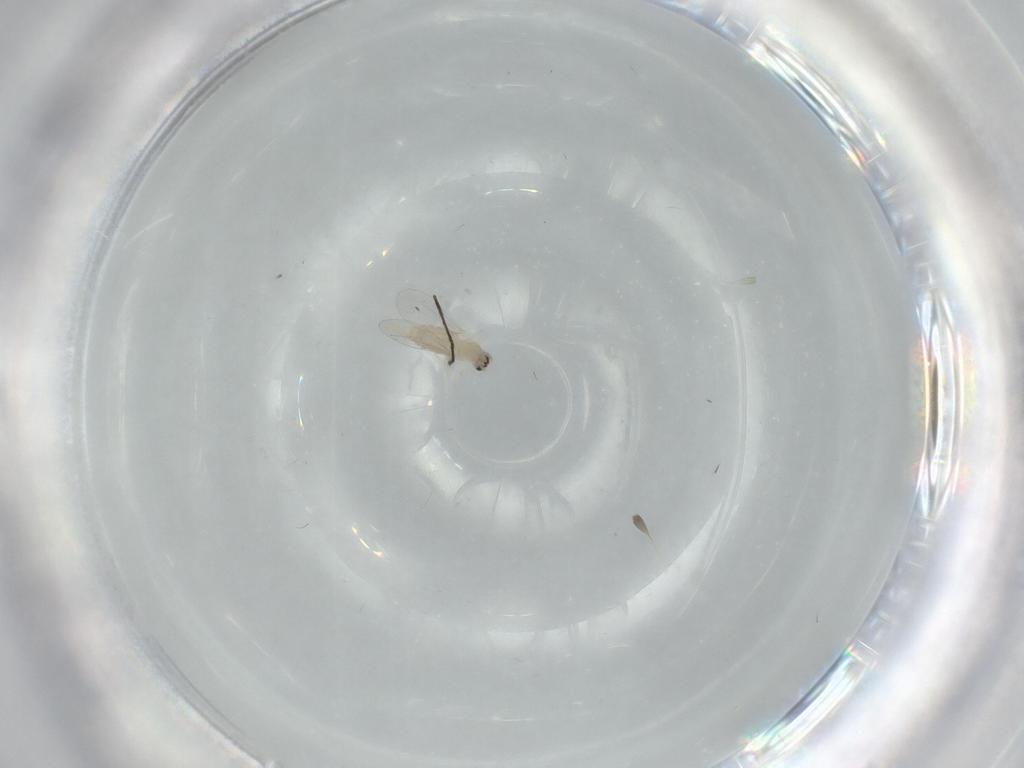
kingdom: Animalia
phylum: Arthropoda
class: Insecta
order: Diptera
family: Cecidomyiidae
